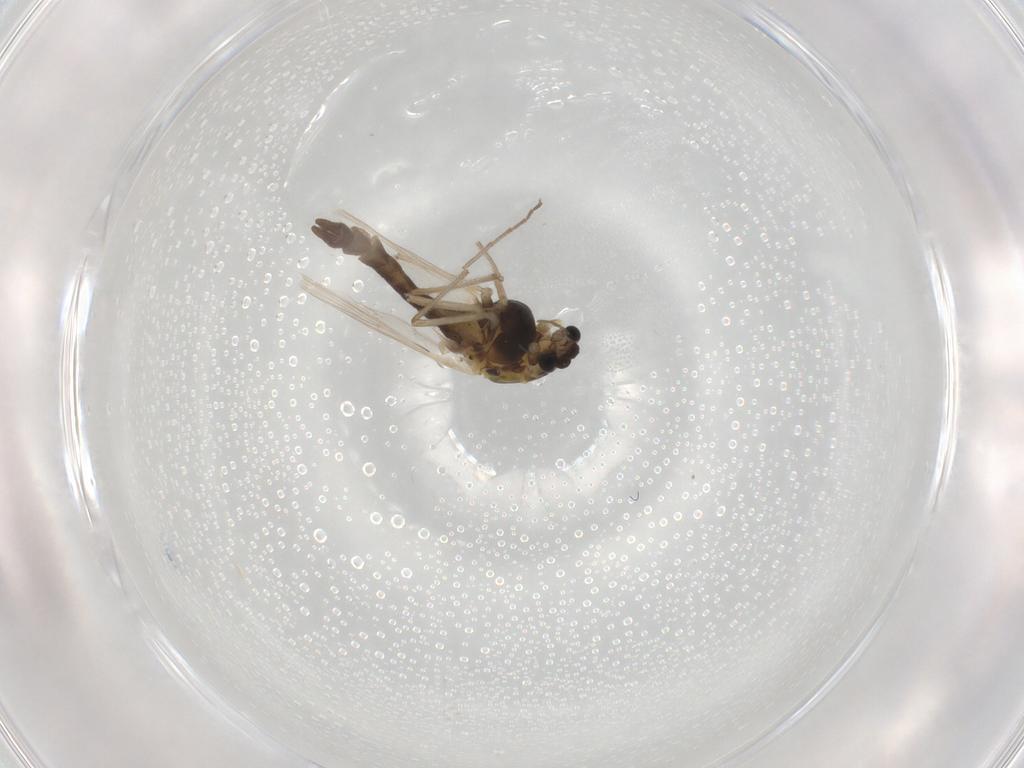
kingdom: Animalia
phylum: Arthropoda
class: Insecta
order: Diptera
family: Chironomidae
